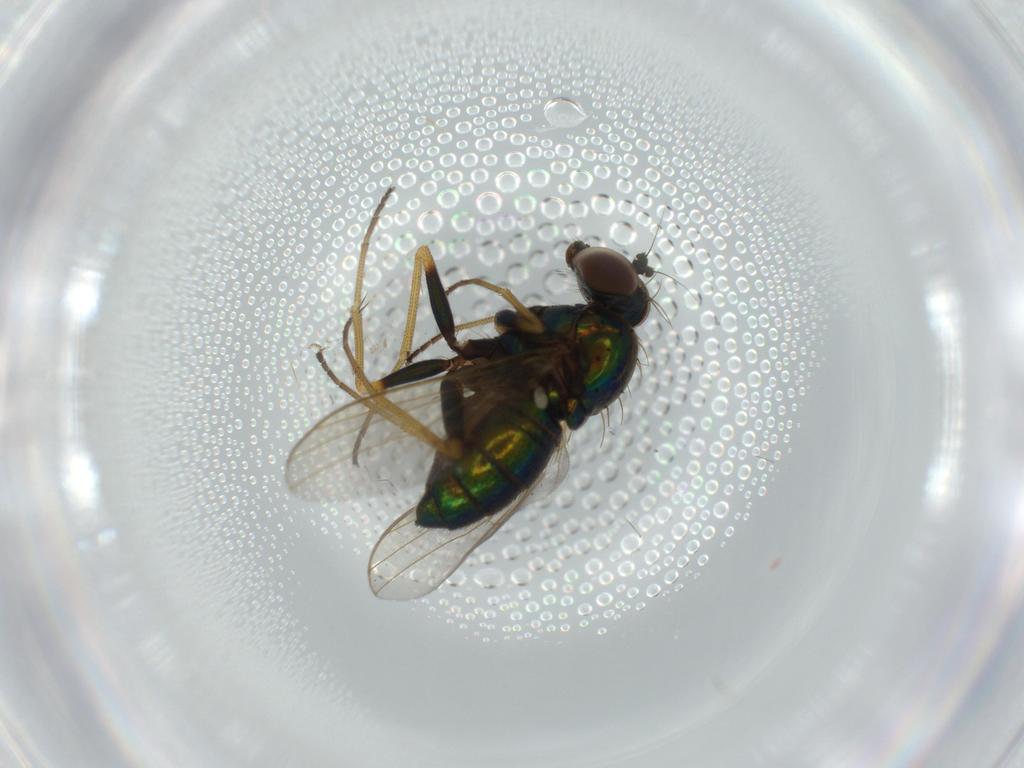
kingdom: Animalia
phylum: Arthropoda
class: Insecta
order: Diptera
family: Dolichopodidae
